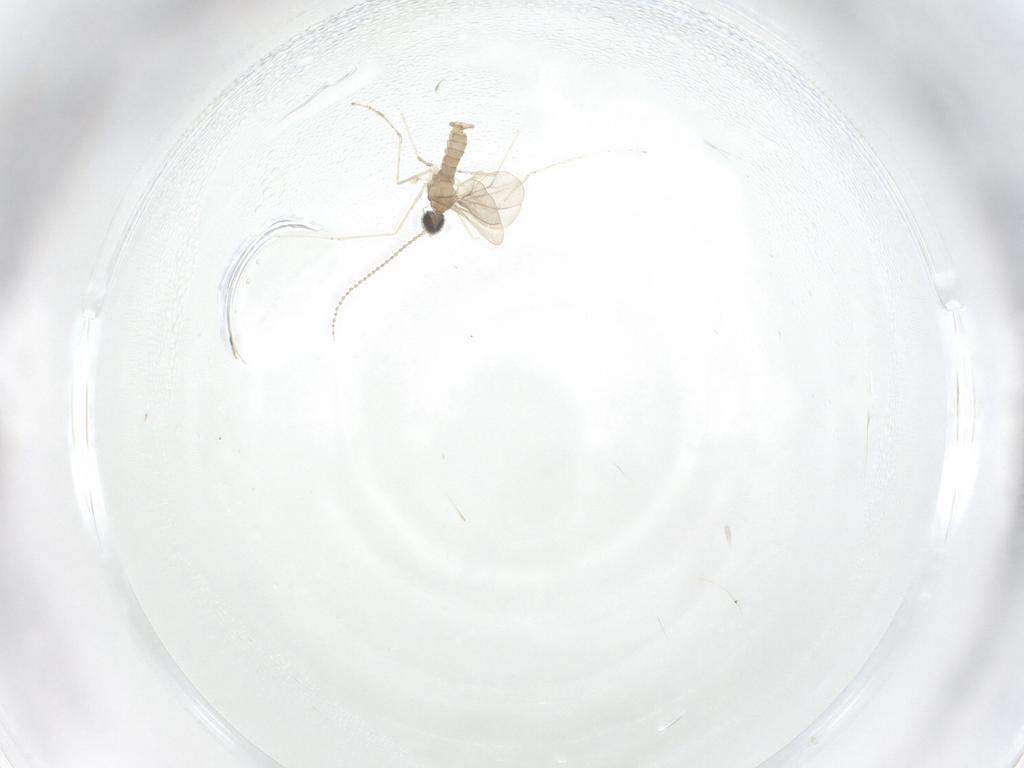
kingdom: Animalia
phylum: Arthropoda
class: Insecta
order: Diptera
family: Cecidomyiidae
